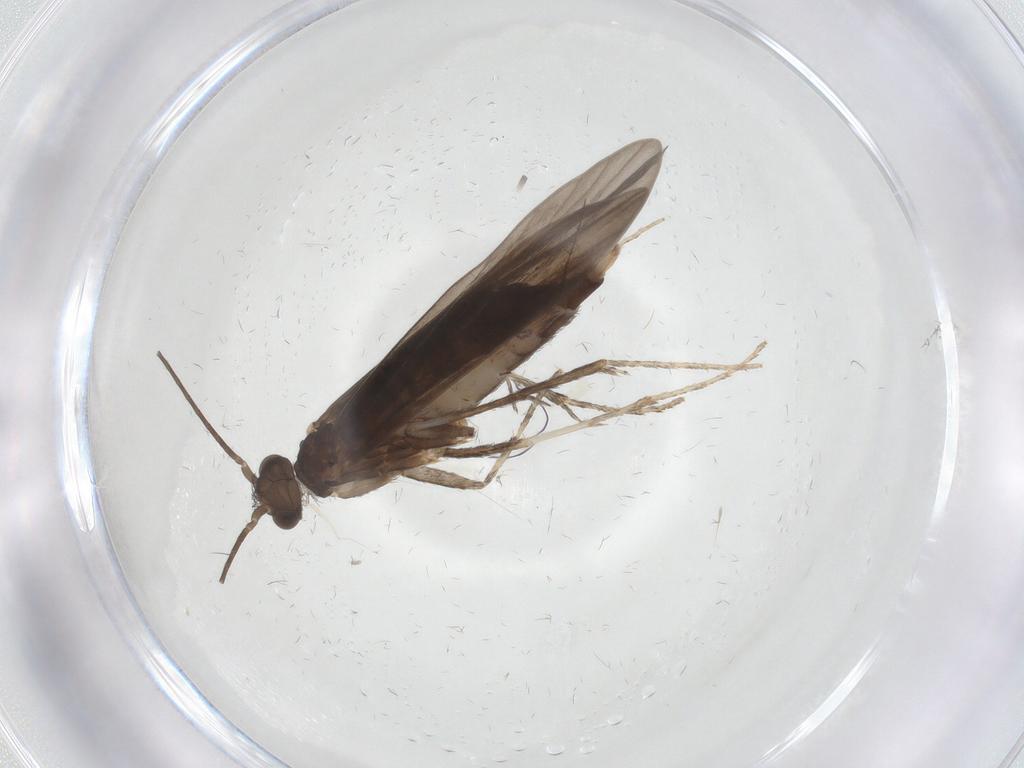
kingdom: Animalia
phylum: Arthropoda
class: Insecta
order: Trichoptera
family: Xiphocentronidae
